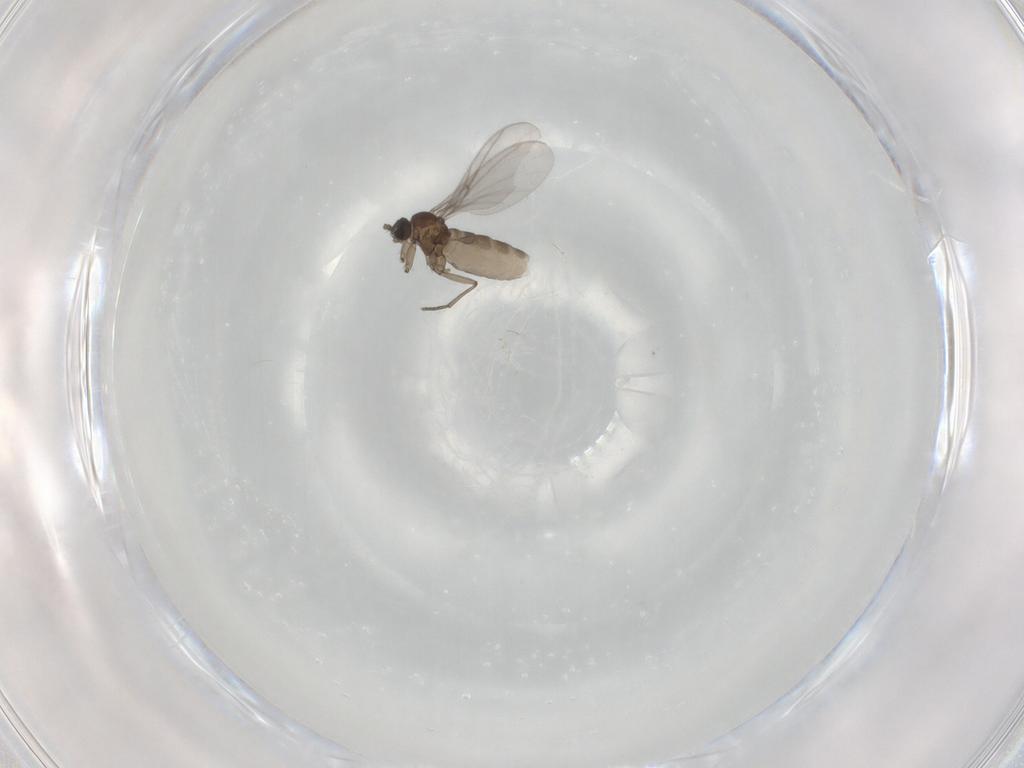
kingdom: Animalia
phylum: Arthropoda
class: Insecta
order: Diptera
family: Sciaridae
